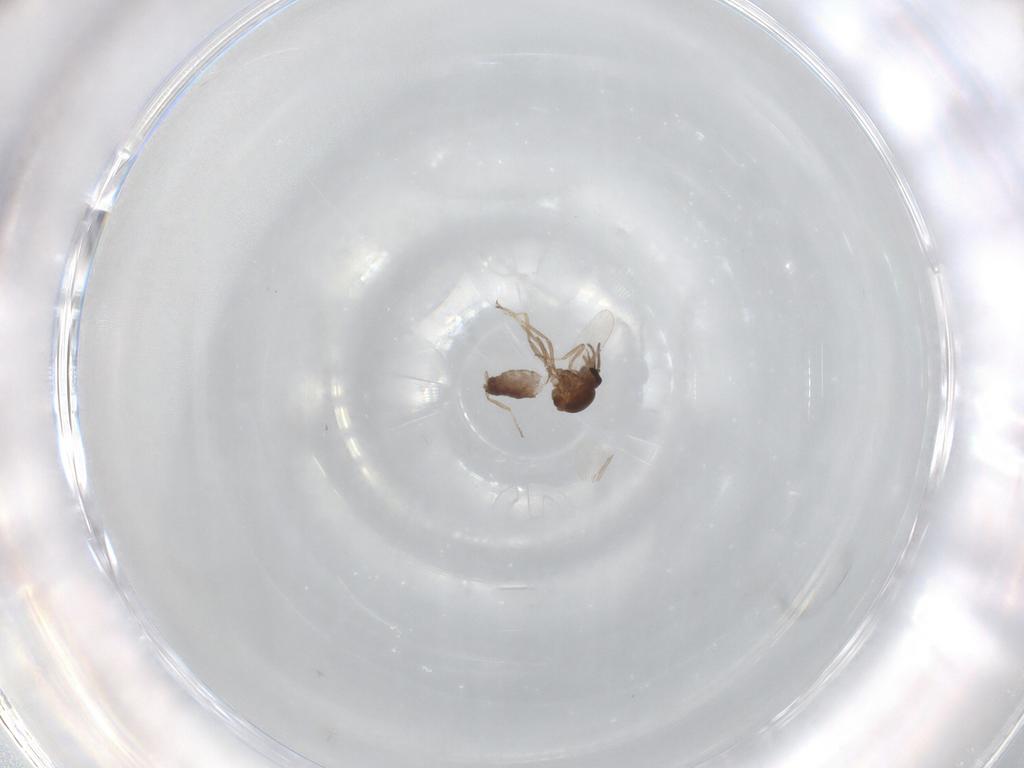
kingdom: Animalia
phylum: Arthropoda
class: Insecta
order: Diptera
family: Ceratopogonidae
